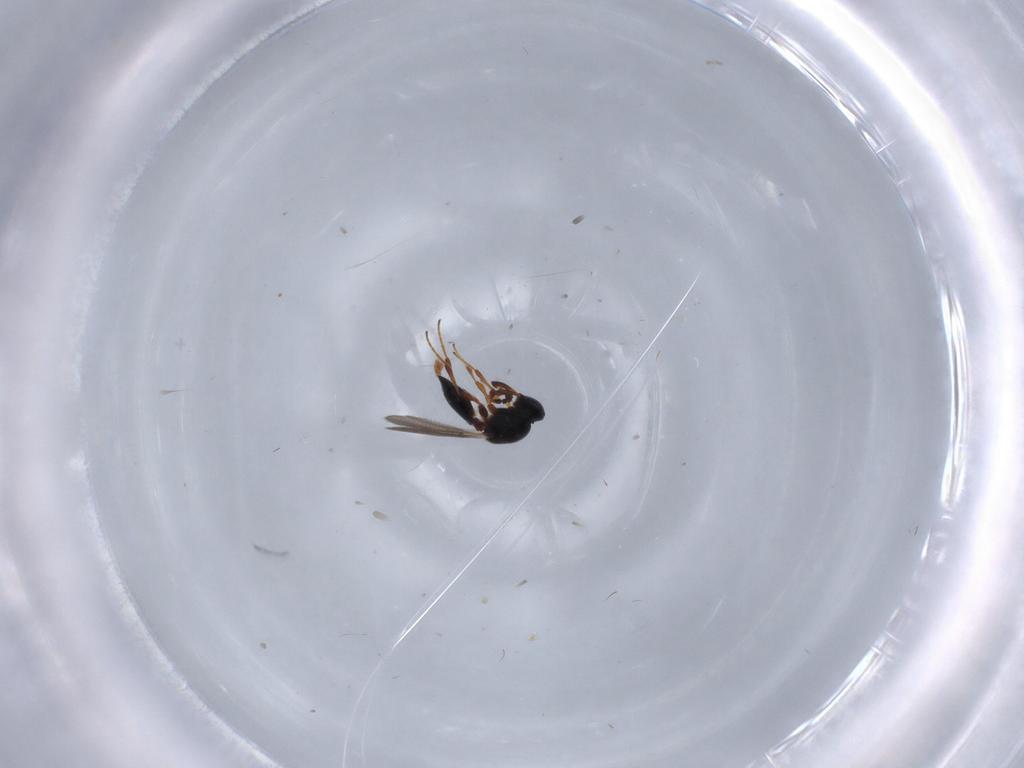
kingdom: Animalia
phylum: Arthropoda
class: Insecta
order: Hymenoptera
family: Platygastridae
